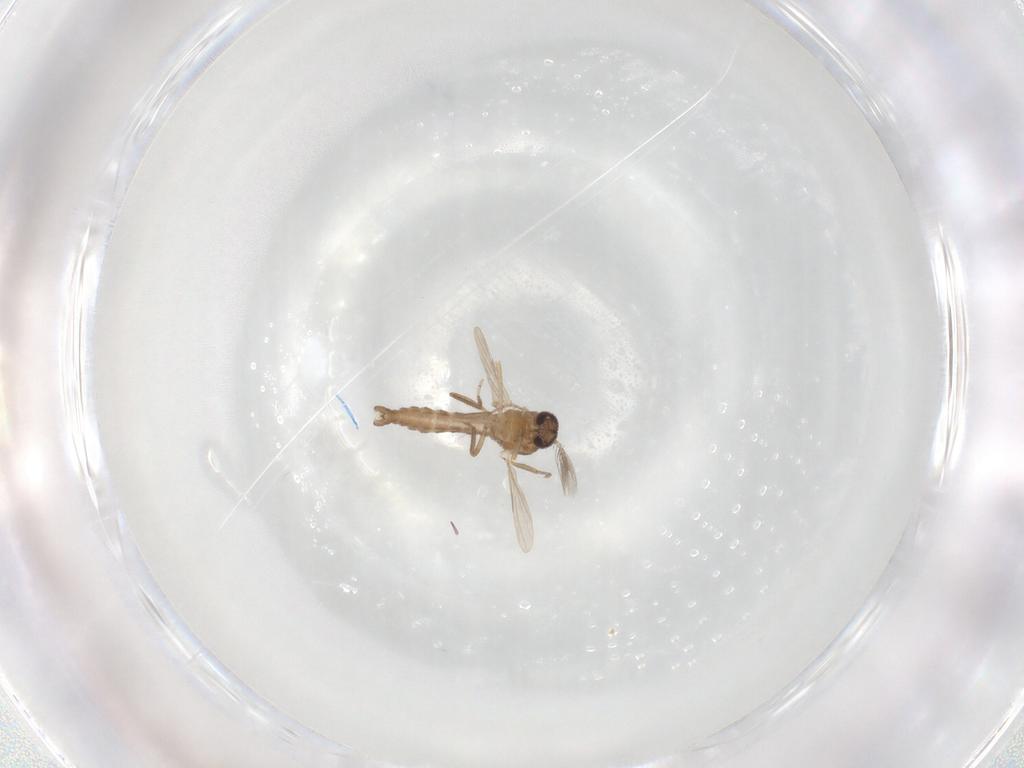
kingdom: Animalia
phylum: Arthropoda
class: Insecta
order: Diptera
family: Ceratopogonidae
